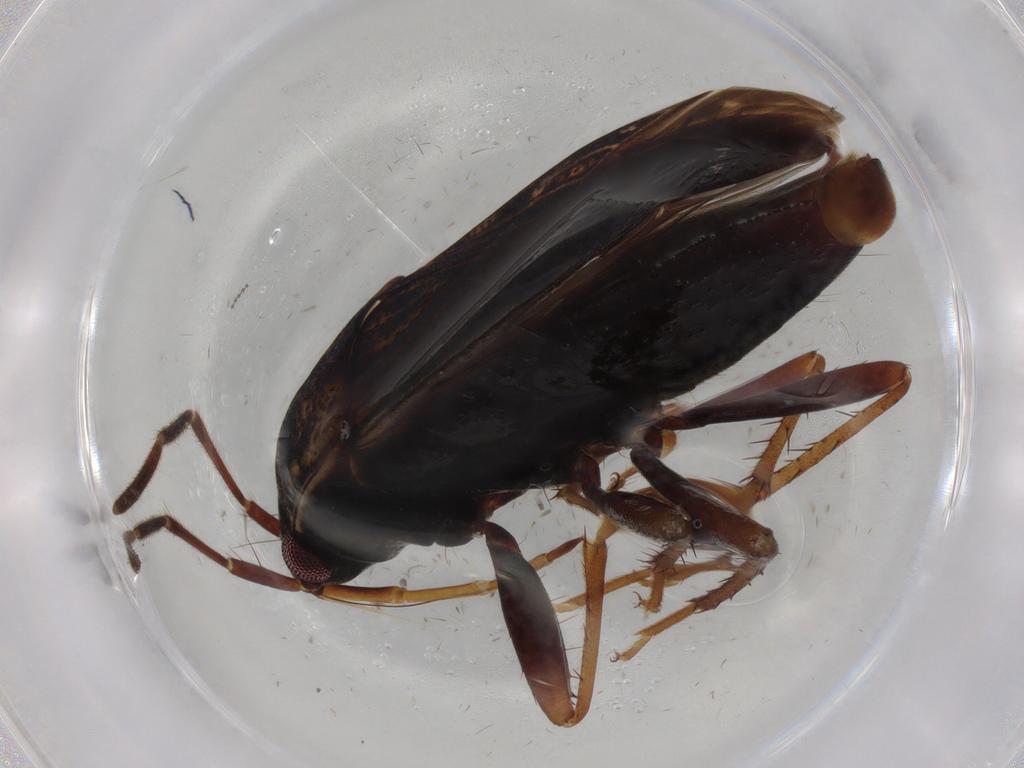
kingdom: Animalia
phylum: Arthropoda
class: Insecta
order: Hemiptera
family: Rhyparochromidae
